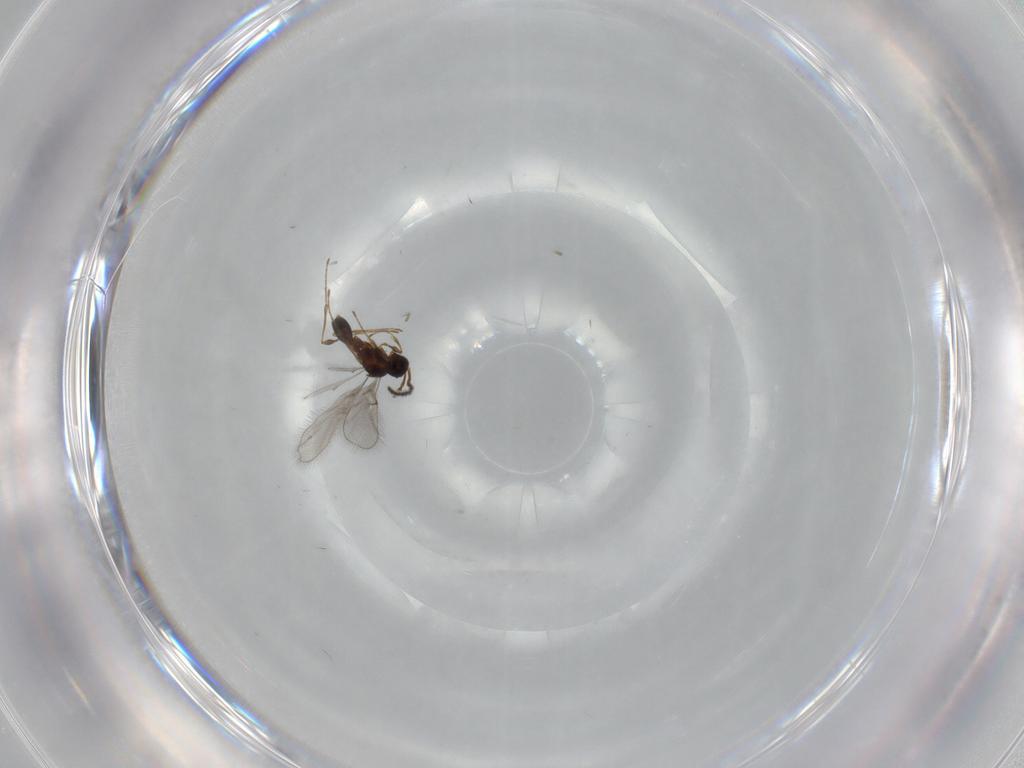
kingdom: Animalia
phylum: Arthropoda
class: Insecta
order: Hymenoptera
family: Diapriidae
